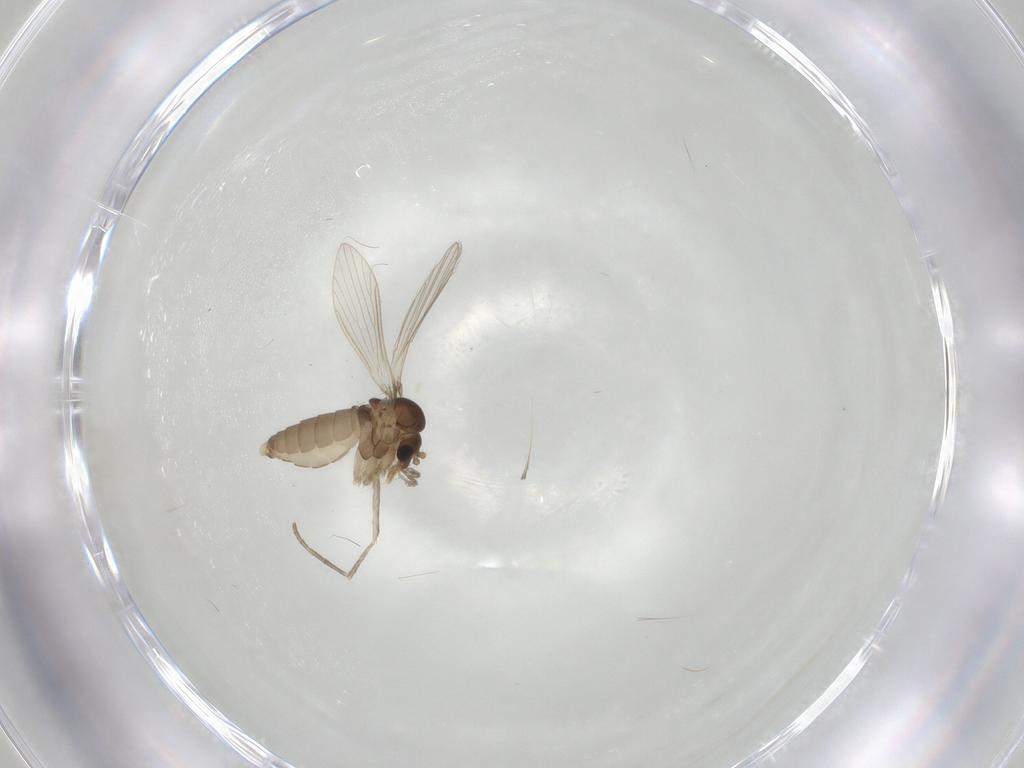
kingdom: Animalia
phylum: Arthropoda
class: Insecta
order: Diptera
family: Psychodidae
